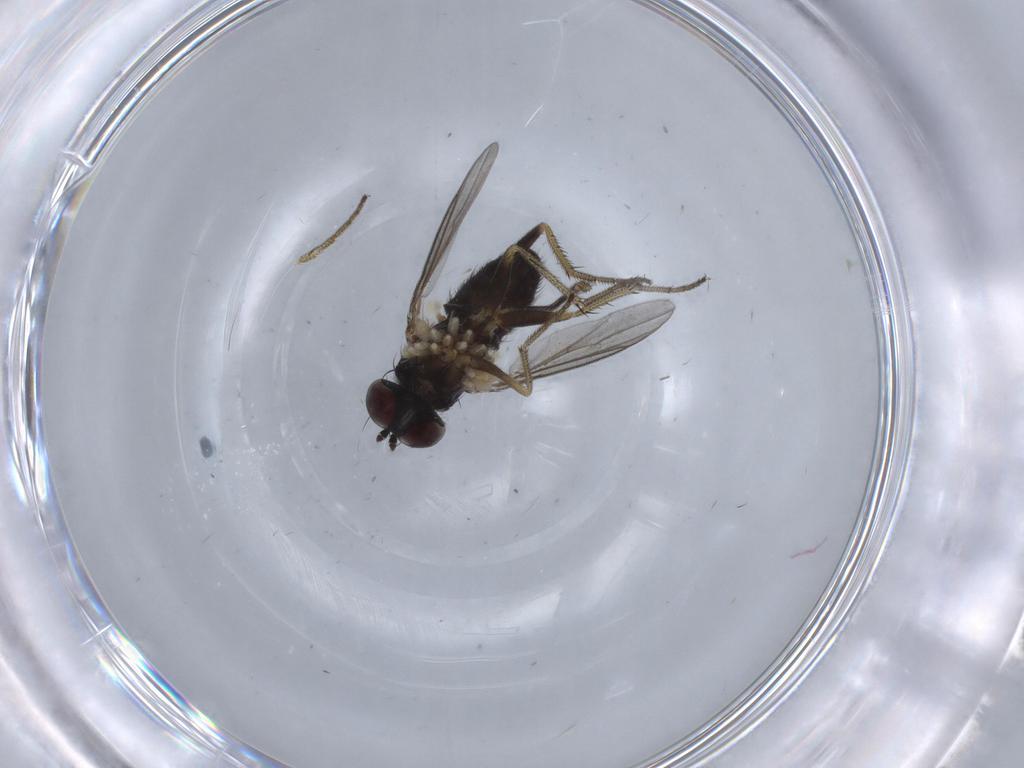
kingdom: Animalia
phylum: Arthropoda
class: Insecta
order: Diptera
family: Dolichopodidae
